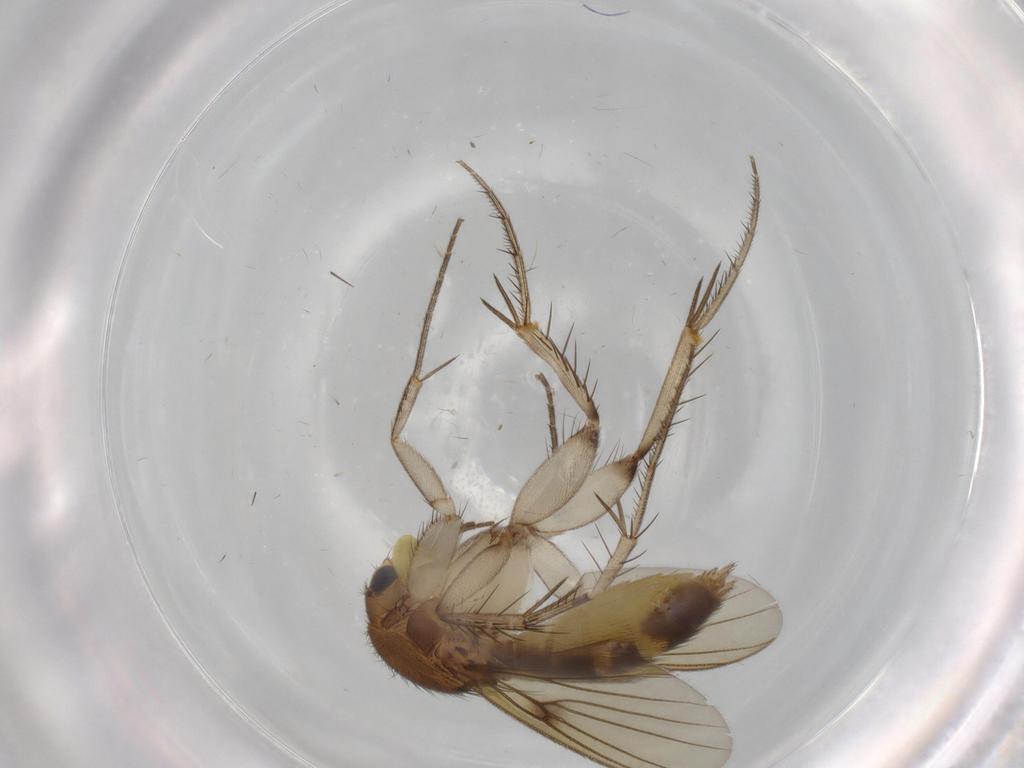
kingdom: Animalia
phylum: Arthropoda
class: Insecta
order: Diptera
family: Mycetophilidae
